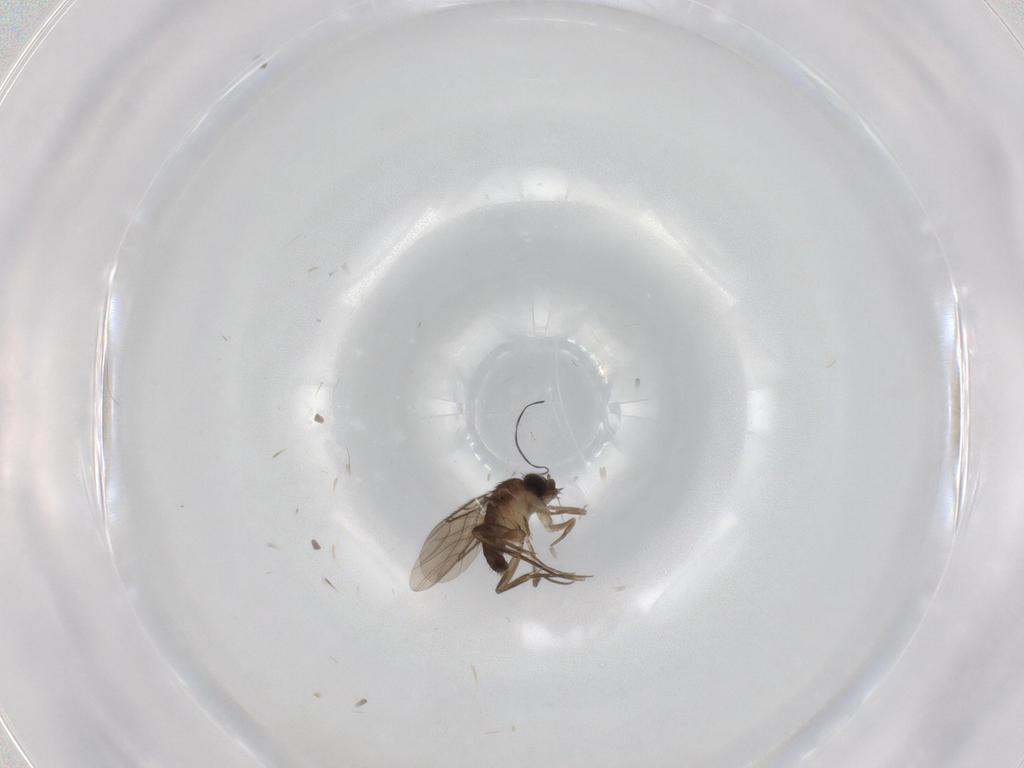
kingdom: Animalia
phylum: Arthropoda
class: Insecta
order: Diptera
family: Phoridae
